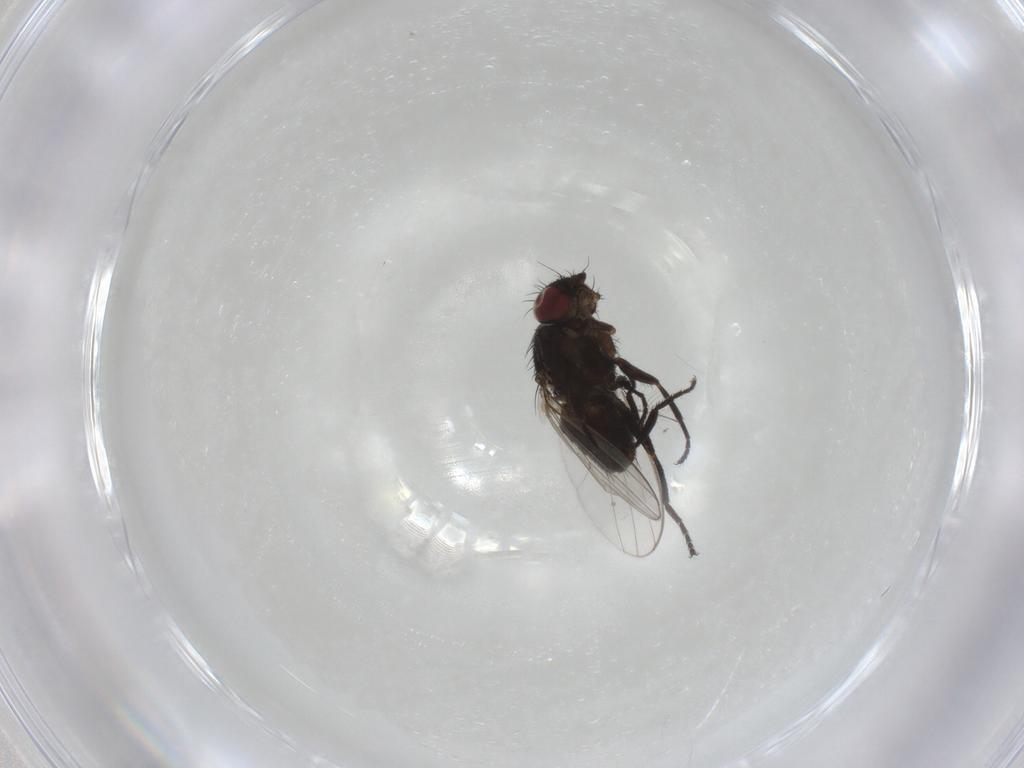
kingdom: Animalia
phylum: Arthropoda
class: Insecta
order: Diptera
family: Milichiidae
